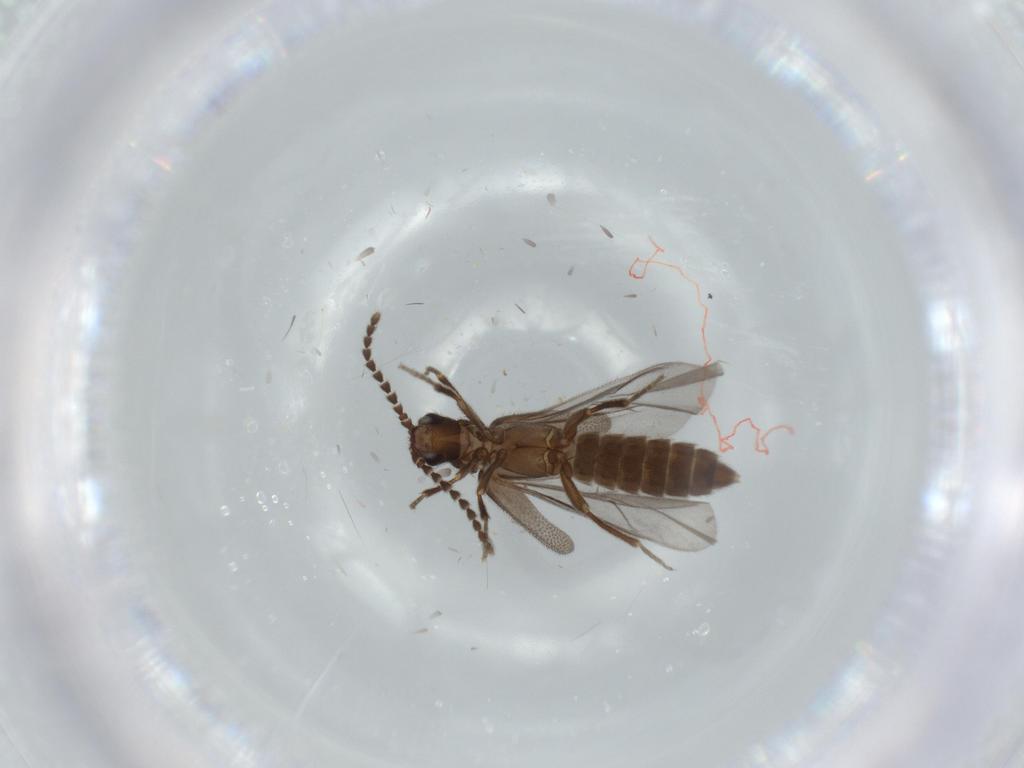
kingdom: Animalia
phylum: Arthropoda
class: Insecta
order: Coleoptera
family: Omethidae
